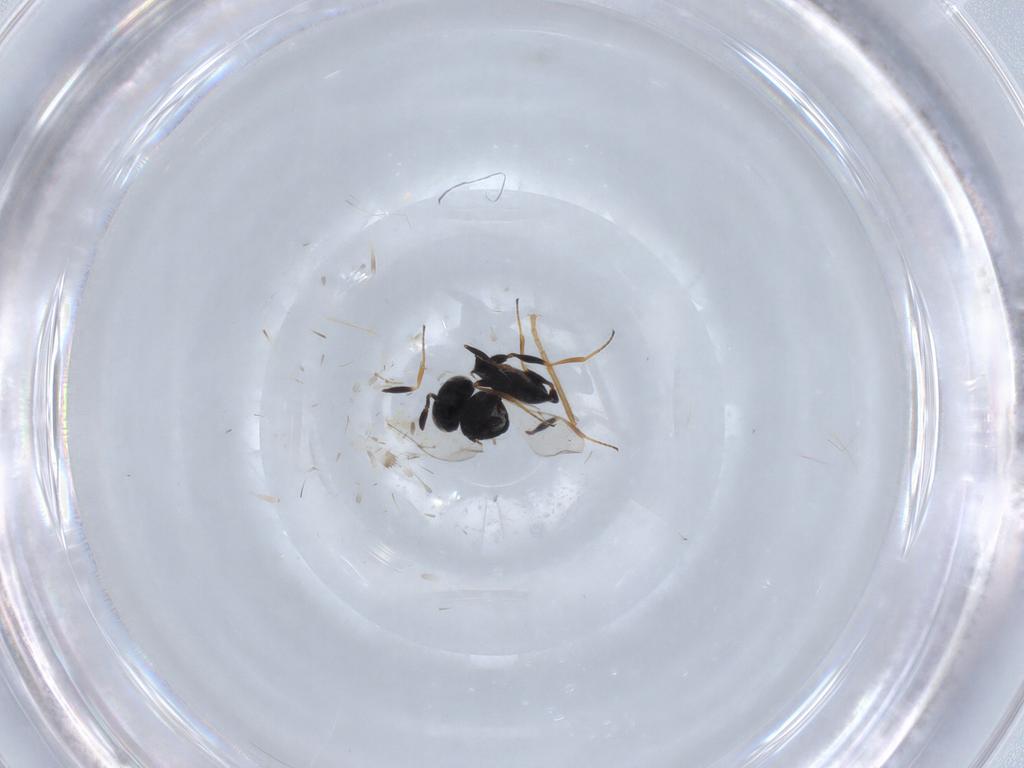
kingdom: Animalia
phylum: Arthropoda
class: Insecta
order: Hymenoptera
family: Scelionidae
